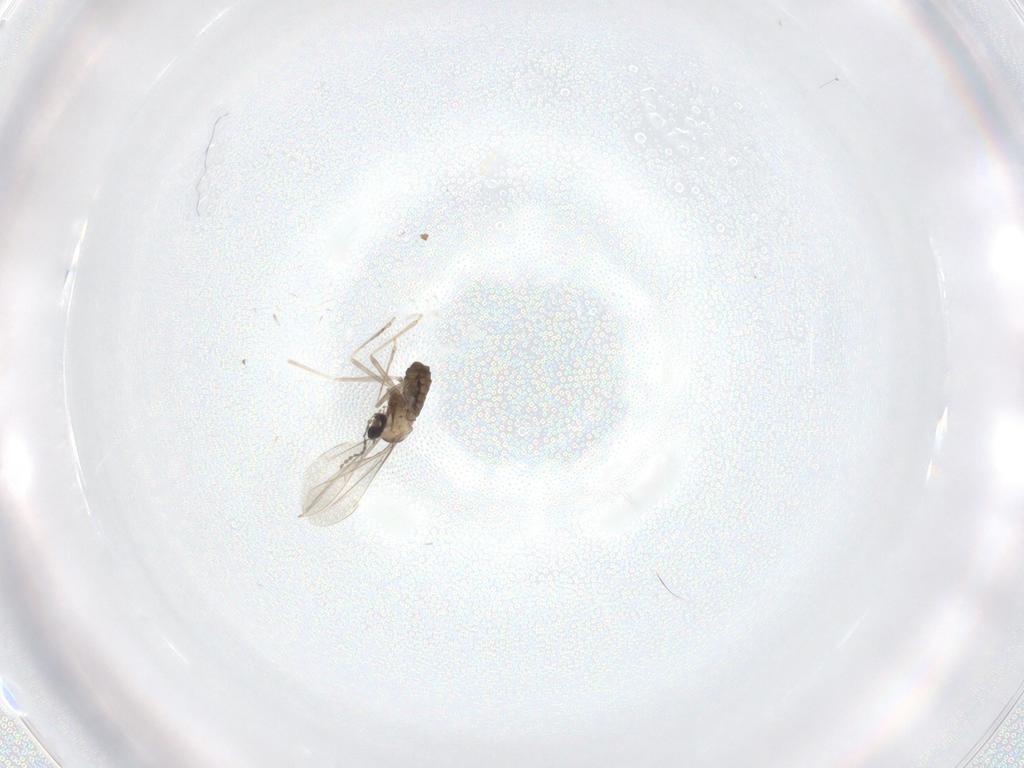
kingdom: Animalia
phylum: Arthropoda
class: Insecta
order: Diptera
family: Cecidomyiidae
